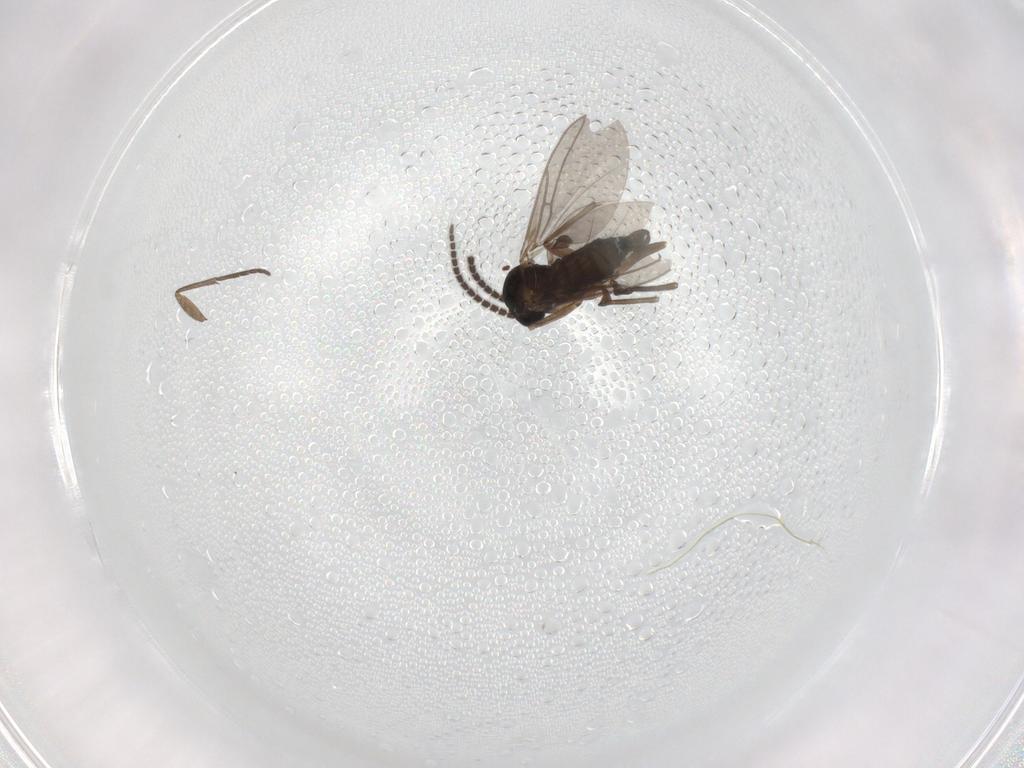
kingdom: Animalia
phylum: Arthropoda
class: Insecta
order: Diptera
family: Sciaridae
